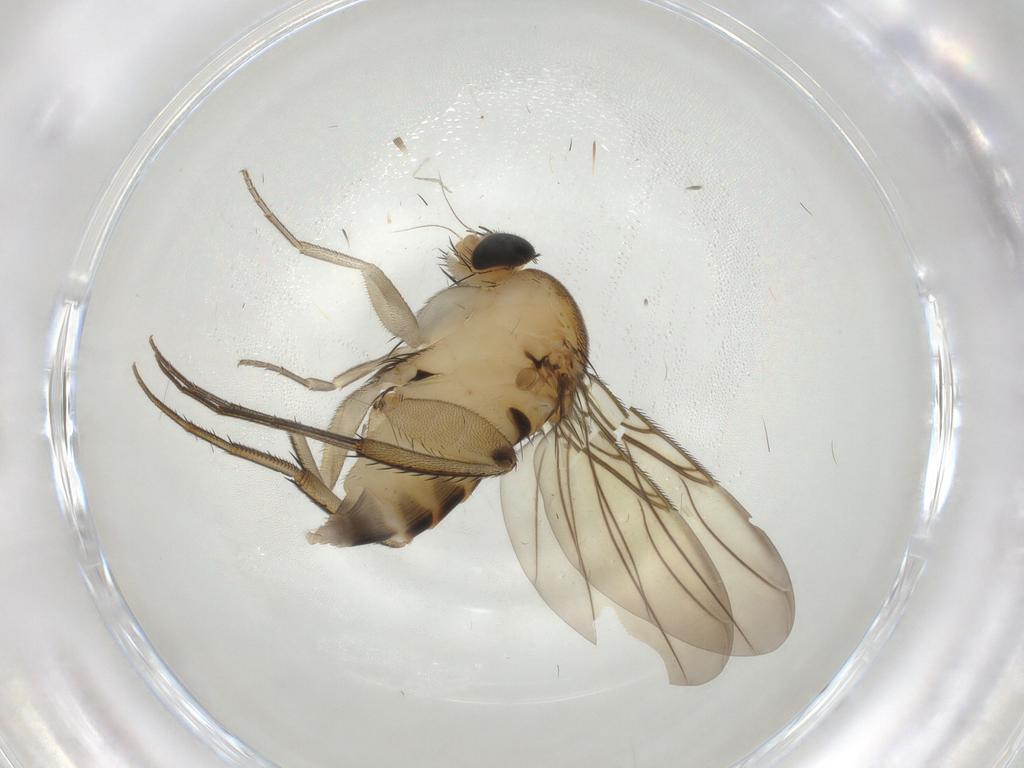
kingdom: Animalia
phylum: Arthropoda
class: Insecta
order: Diptera
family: Phoridae
